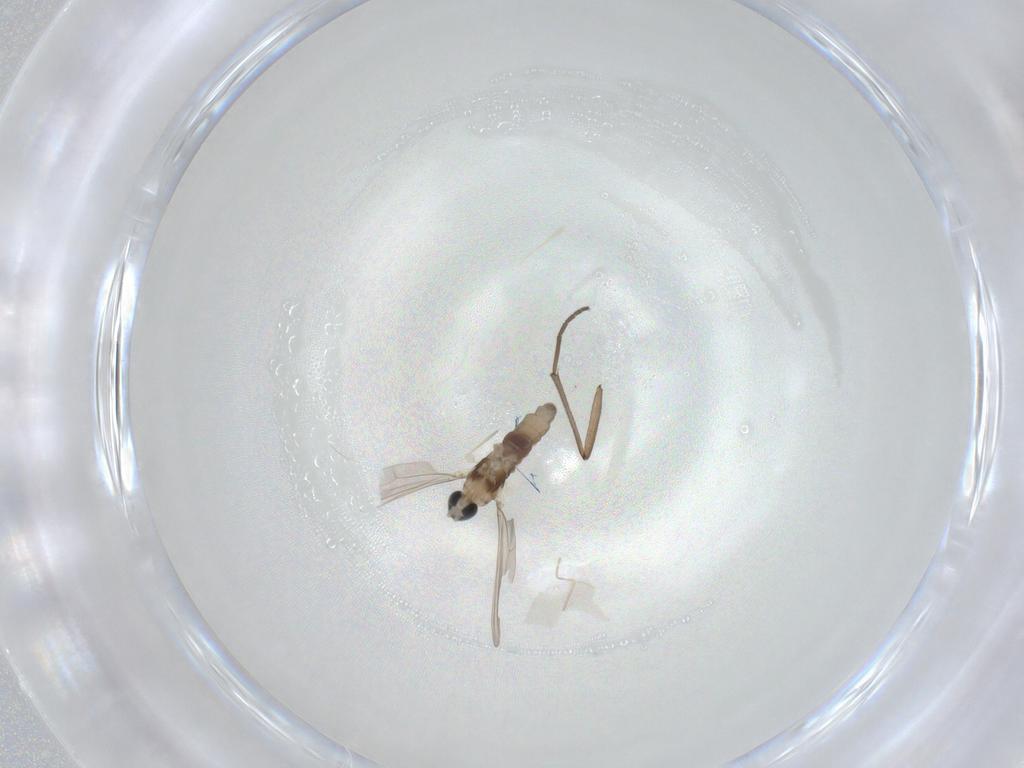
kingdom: Animalia
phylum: Arthropoda
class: Insecta
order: Diptera
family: Cecidomyiidae
